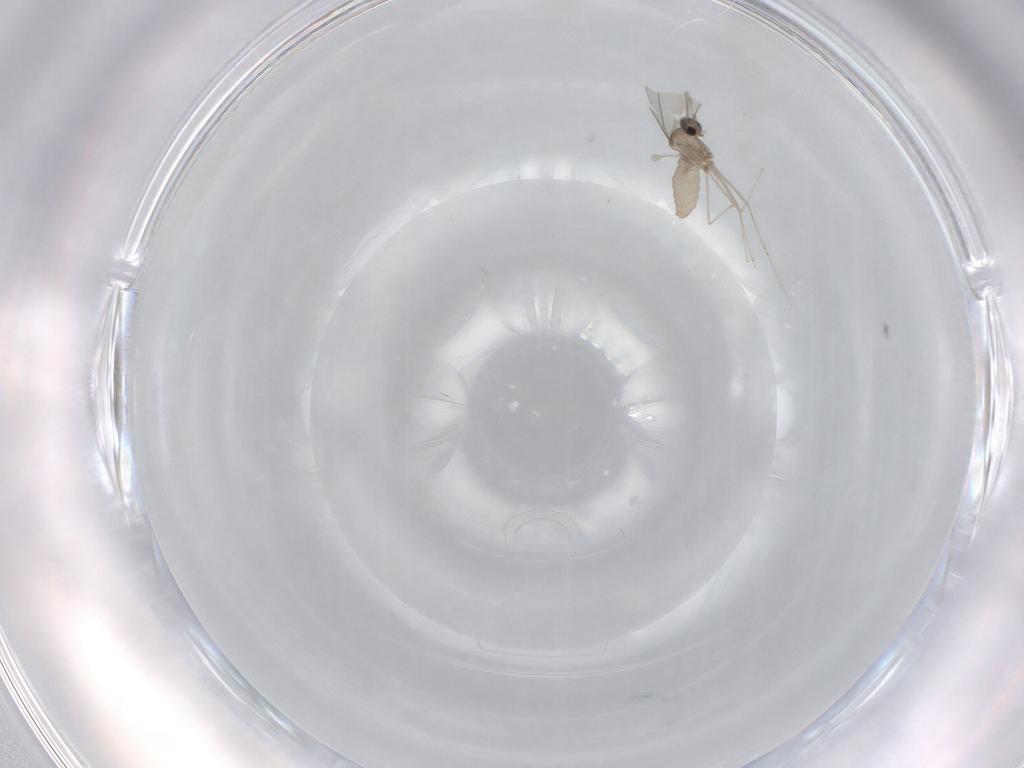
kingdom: Animalia
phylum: Arthropoda
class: Insecta
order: Diptera
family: Cecidomyiidae
